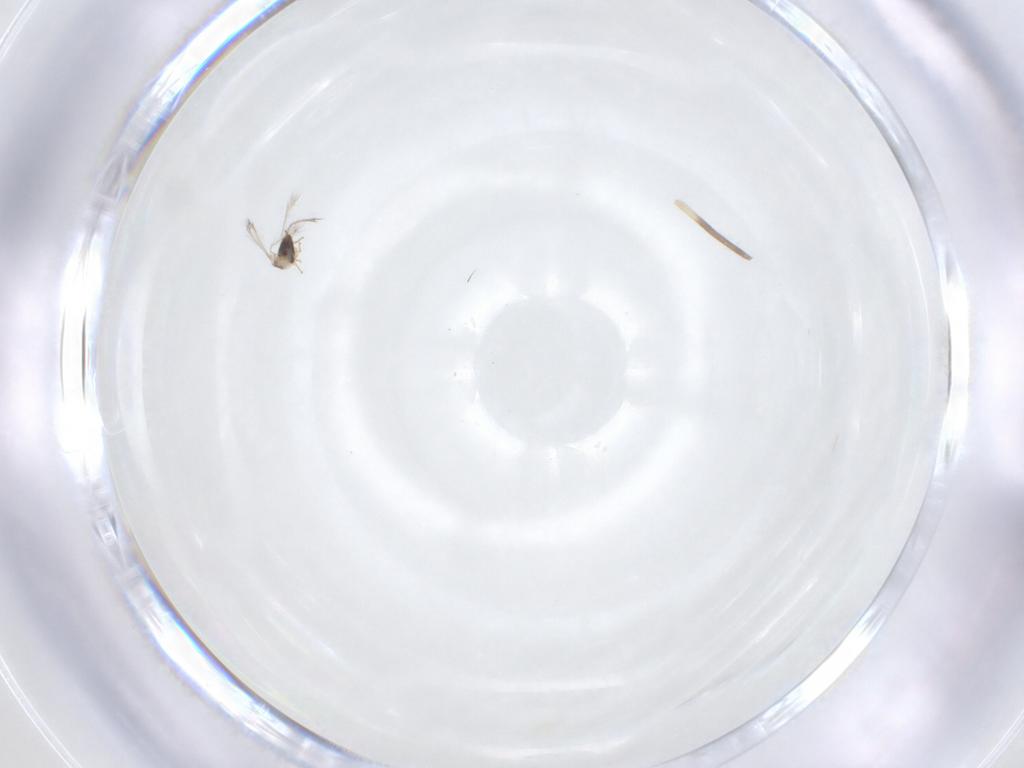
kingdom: Animalia
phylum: Arthropoda
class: Insecta
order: Hymenoptera
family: Mymaridae
